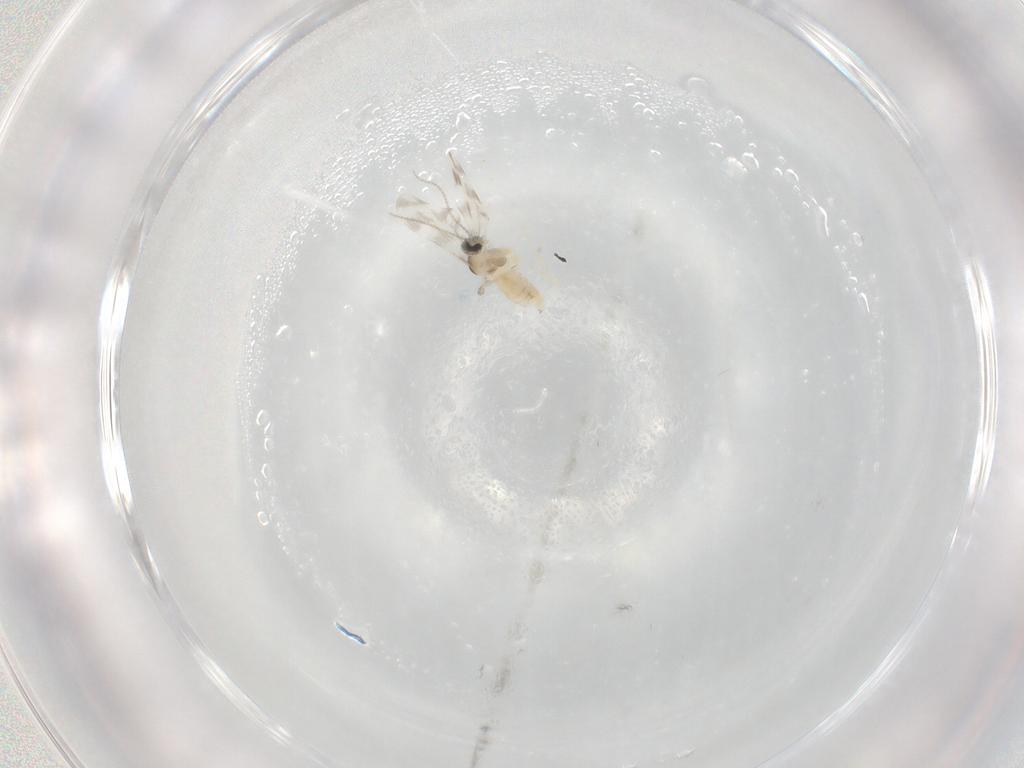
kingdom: Animalia
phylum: Arthropoda
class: Insecta
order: Diptera
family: Cecidomyiidae
